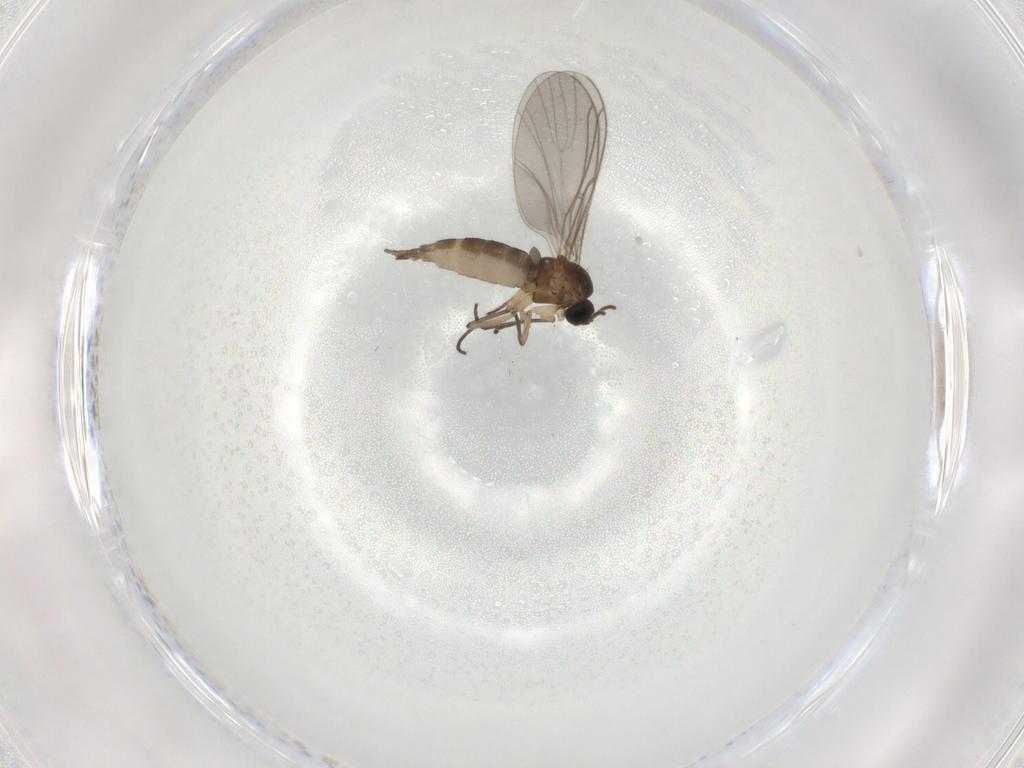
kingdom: Animalia
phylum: Arthropoda
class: Insecta
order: Diptera
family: Sciaridae
